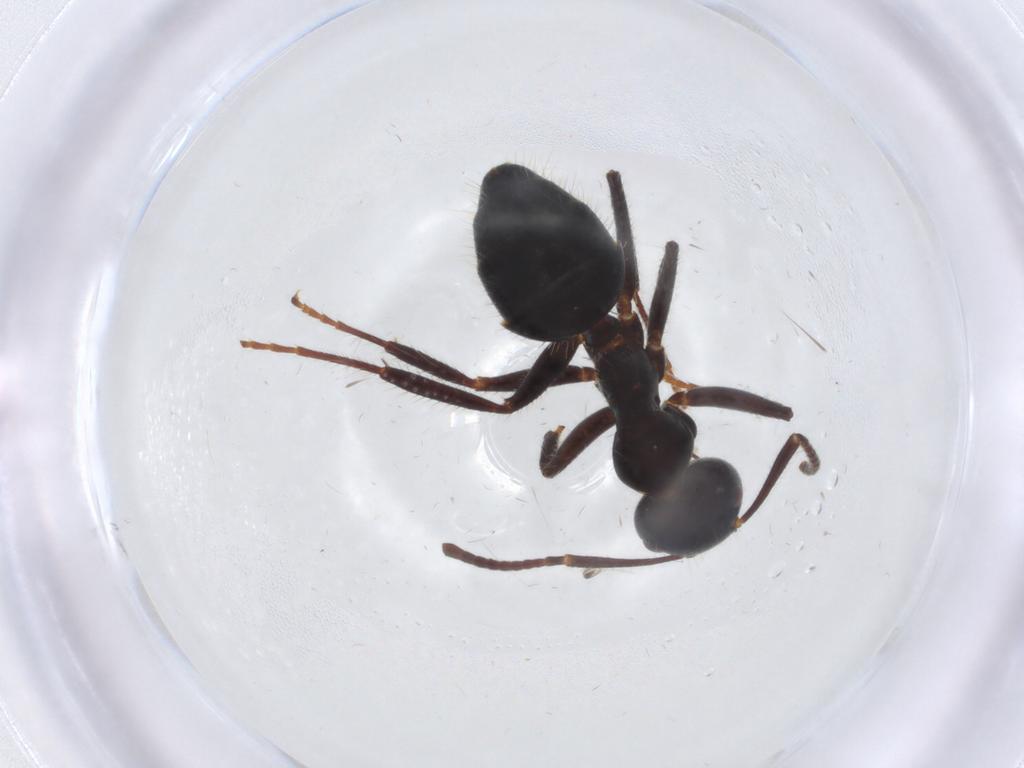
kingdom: Animalia
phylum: Arthropoda
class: Insecta
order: Hymenoptera
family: Formicidae
